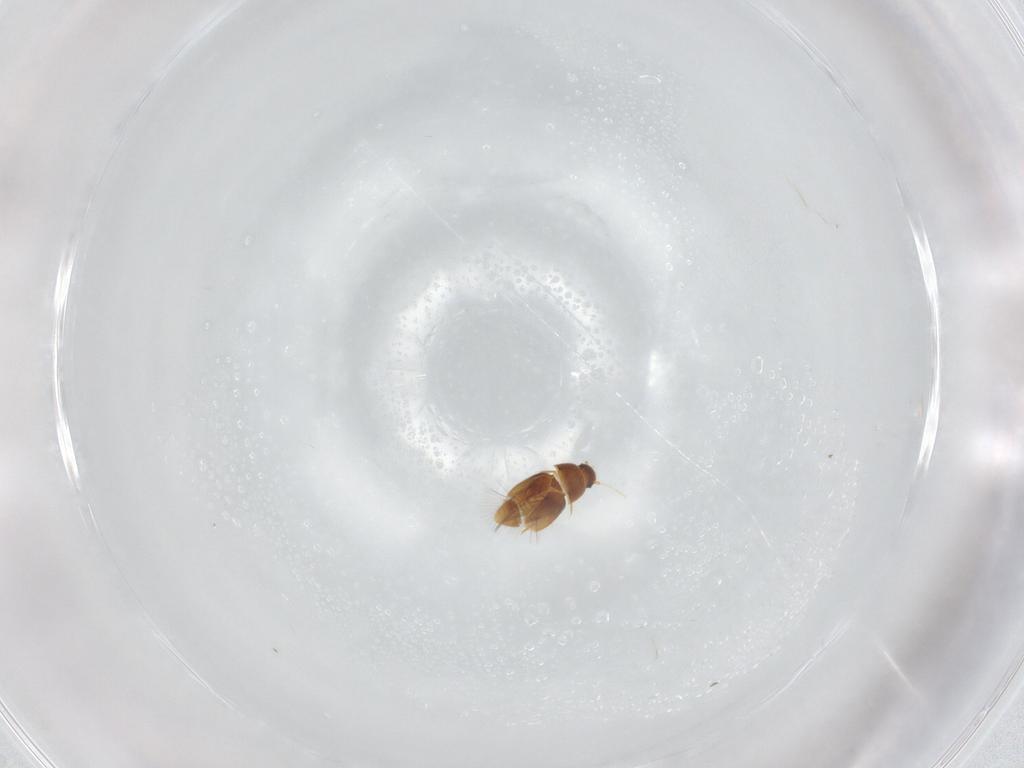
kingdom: Animalia
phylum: Arthropoda
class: Insecta
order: Coleoptera
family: Ptiliidae
